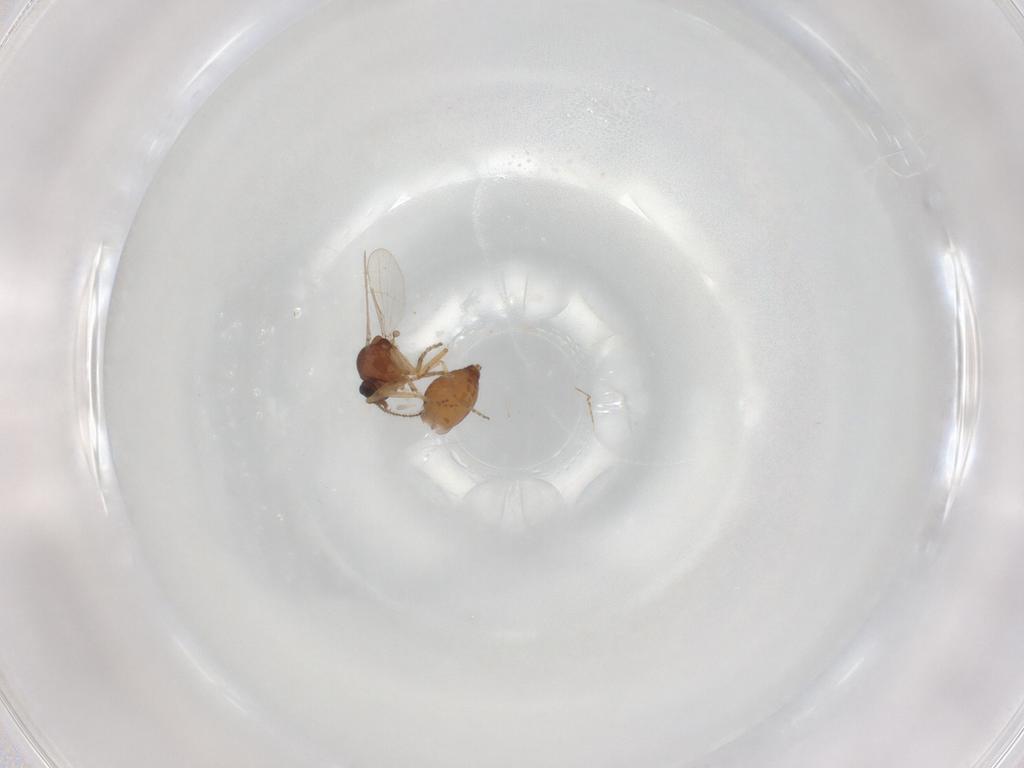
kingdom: Animalia
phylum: Arthropoda
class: Insecta
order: Diptera
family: Ceratopogonidae
